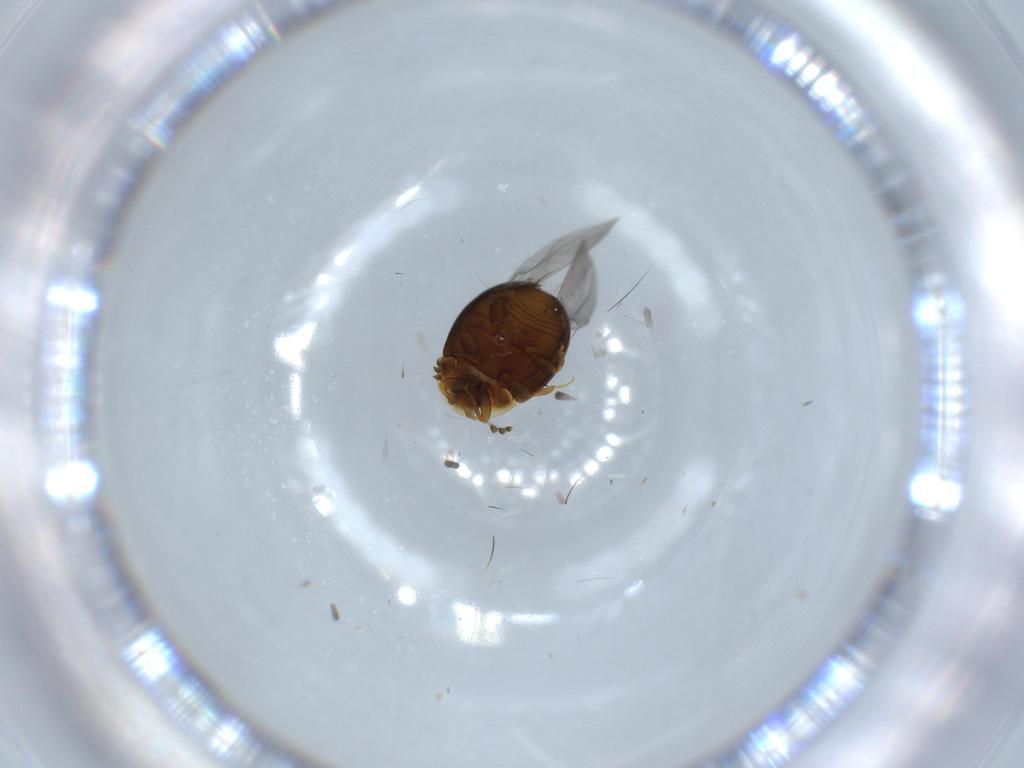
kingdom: Animalia
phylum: Arthropoda
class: Insecta
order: Coleoptera
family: Corylophidae
